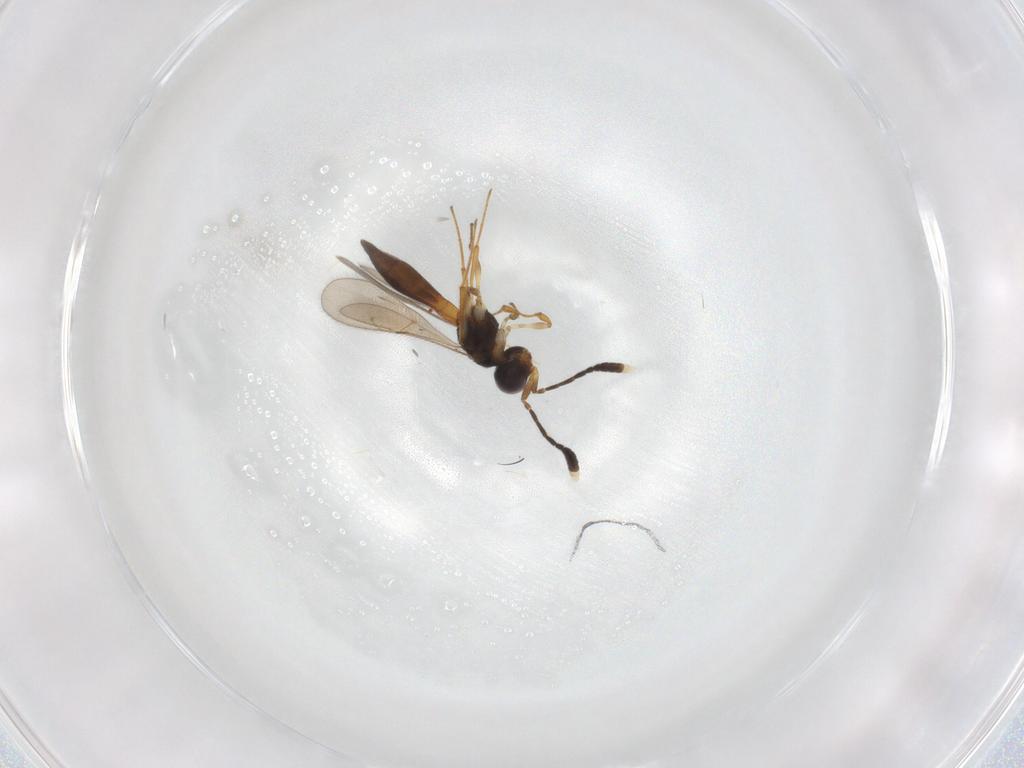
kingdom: Animalia
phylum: Arthropoda
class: Insecta
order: Hymenoptera
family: Scelionidae
